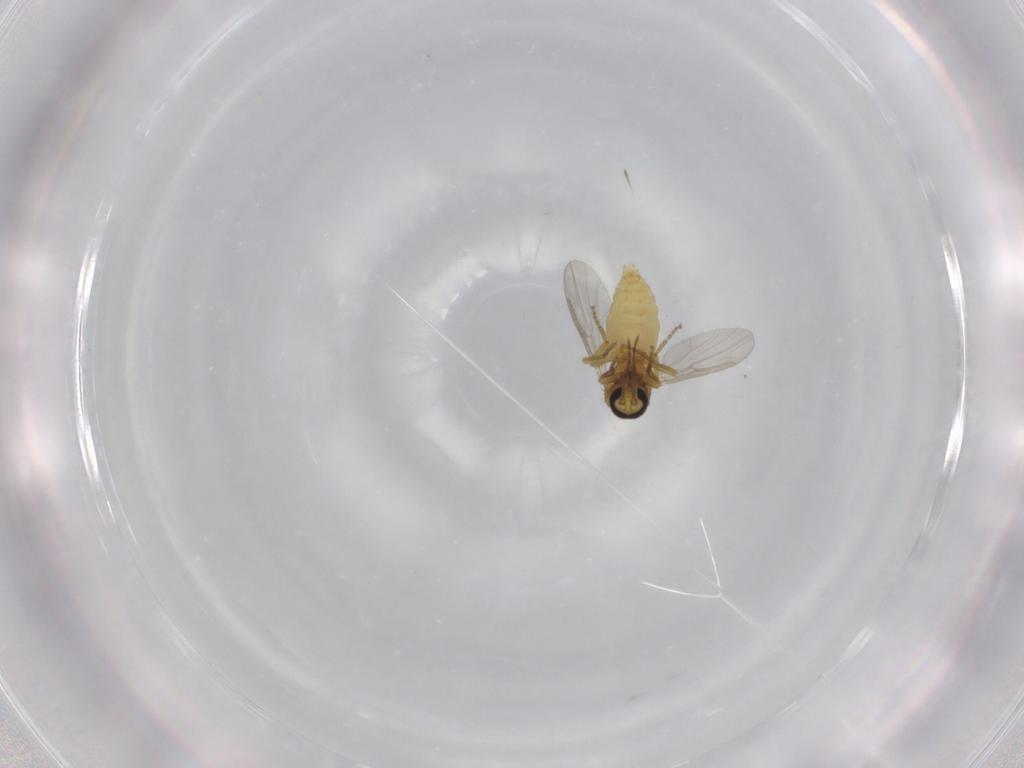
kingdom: Animalia
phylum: Arthropoda
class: Insecta
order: Diptera
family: Ceratopogonidae
